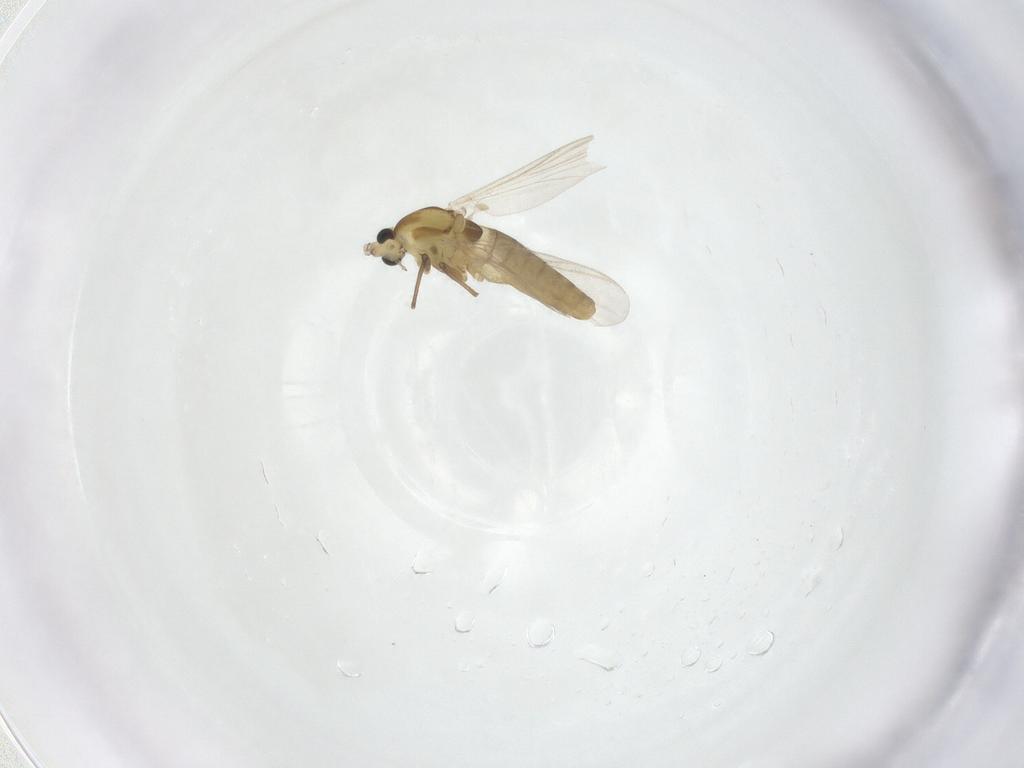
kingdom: Animalia
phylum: Arthropoda
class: Insecta
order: Diptera
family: Chironomidae
